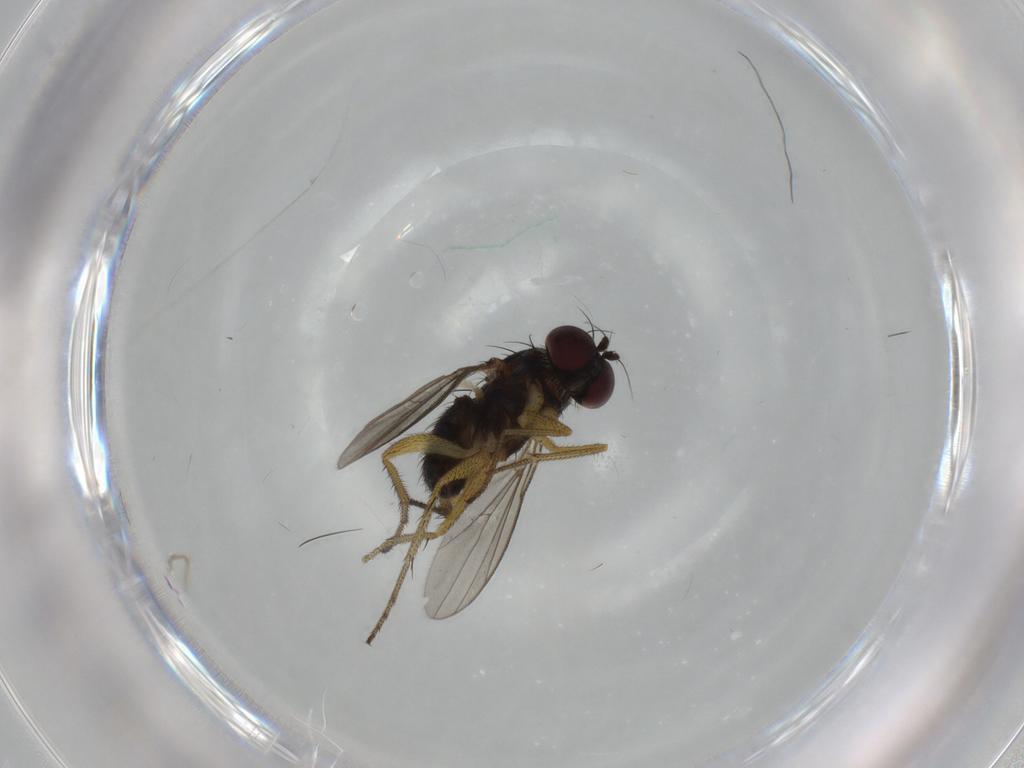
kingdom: Animalia
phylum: Arthropoda
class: Insecta
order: Diptera
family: Dolichopodidae
